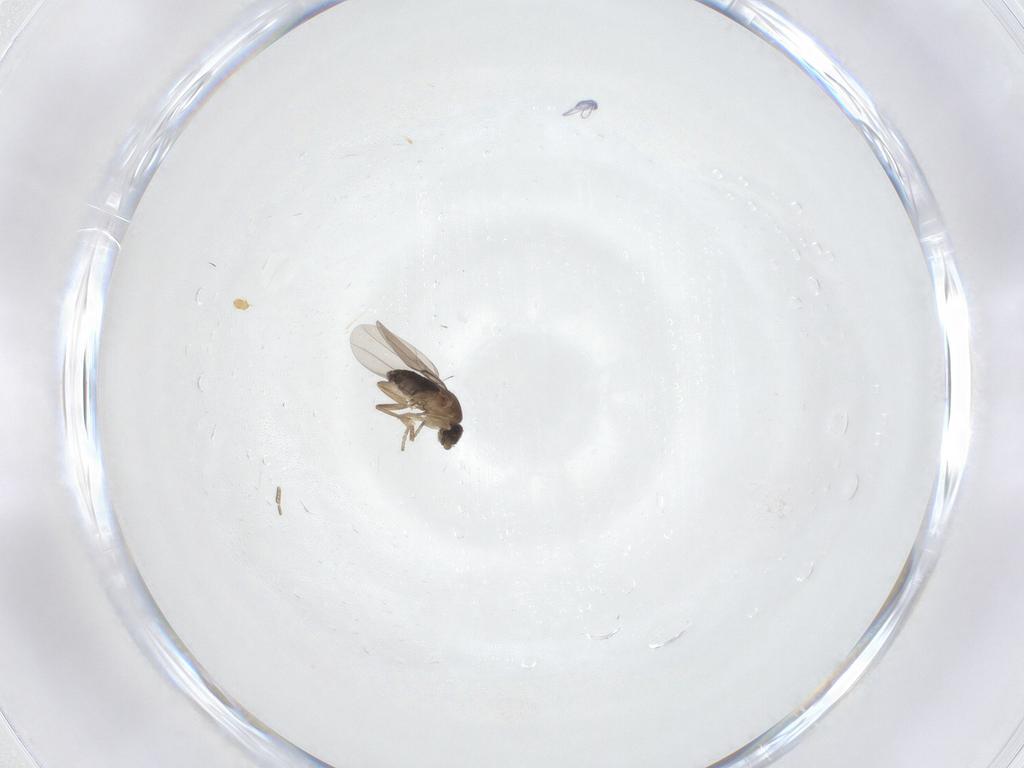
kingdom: Animalia
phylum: Arthropoda
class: Insecta
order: Diptera
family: Phoridae
